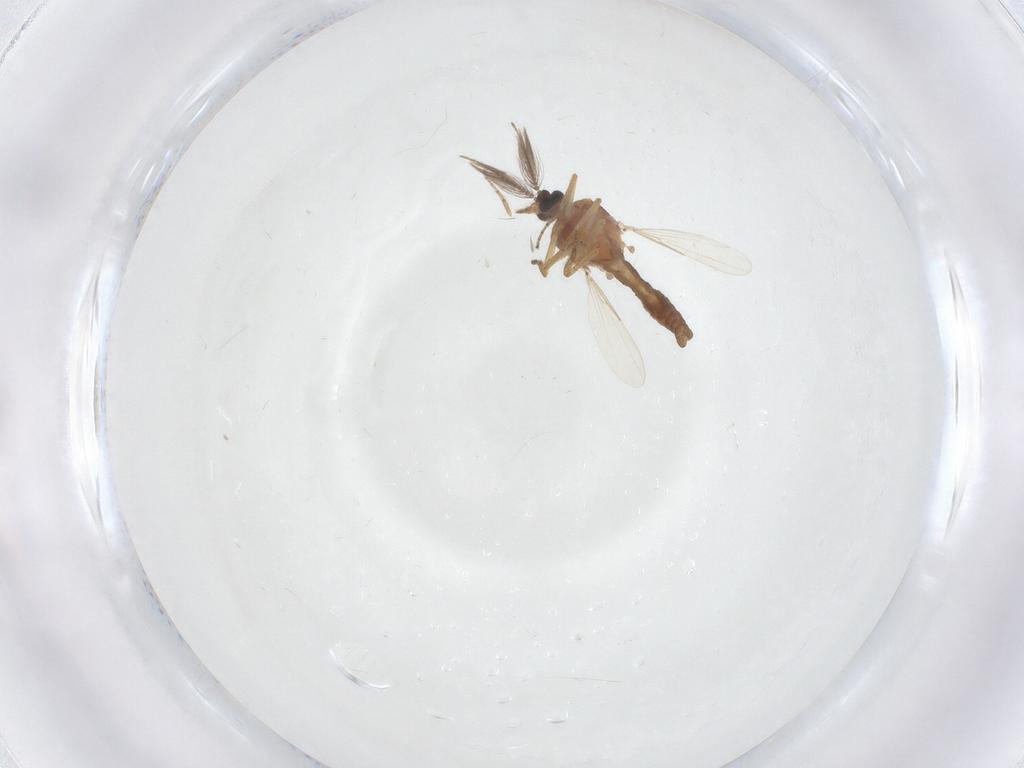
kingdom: Animalia
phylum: Arthropoda
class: Insecta
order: Diptera
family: Ceratopogonidae
